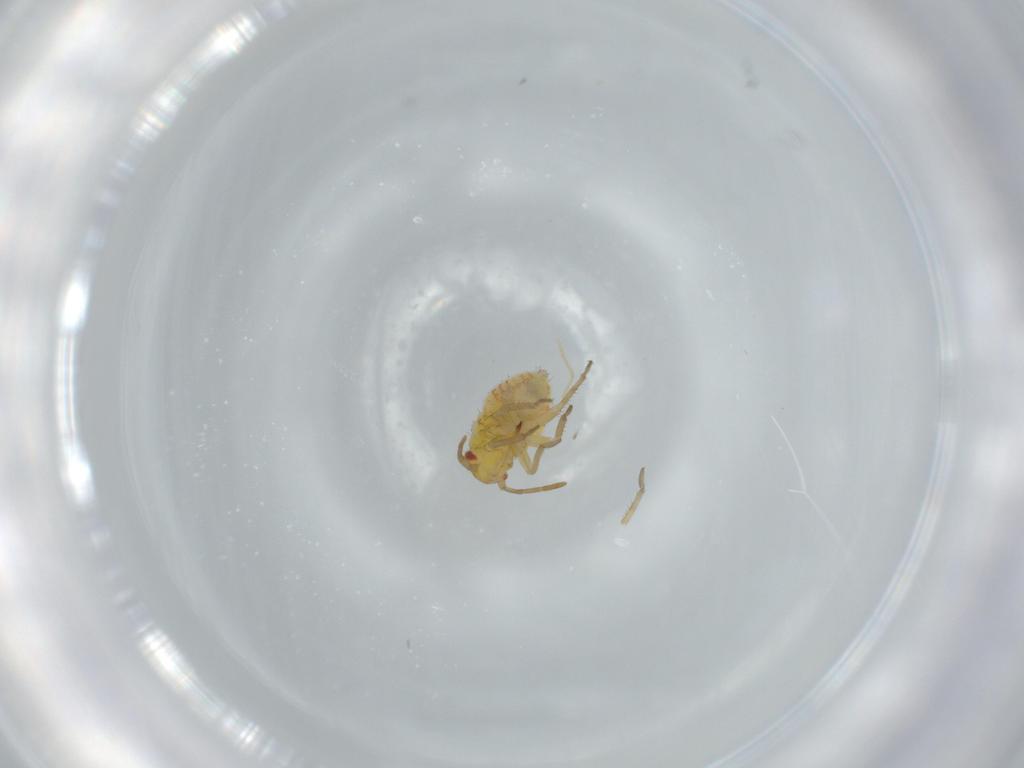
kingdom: Animalia
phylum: Arthropoda
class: Insecta
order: Hemiptera
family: Miridae
